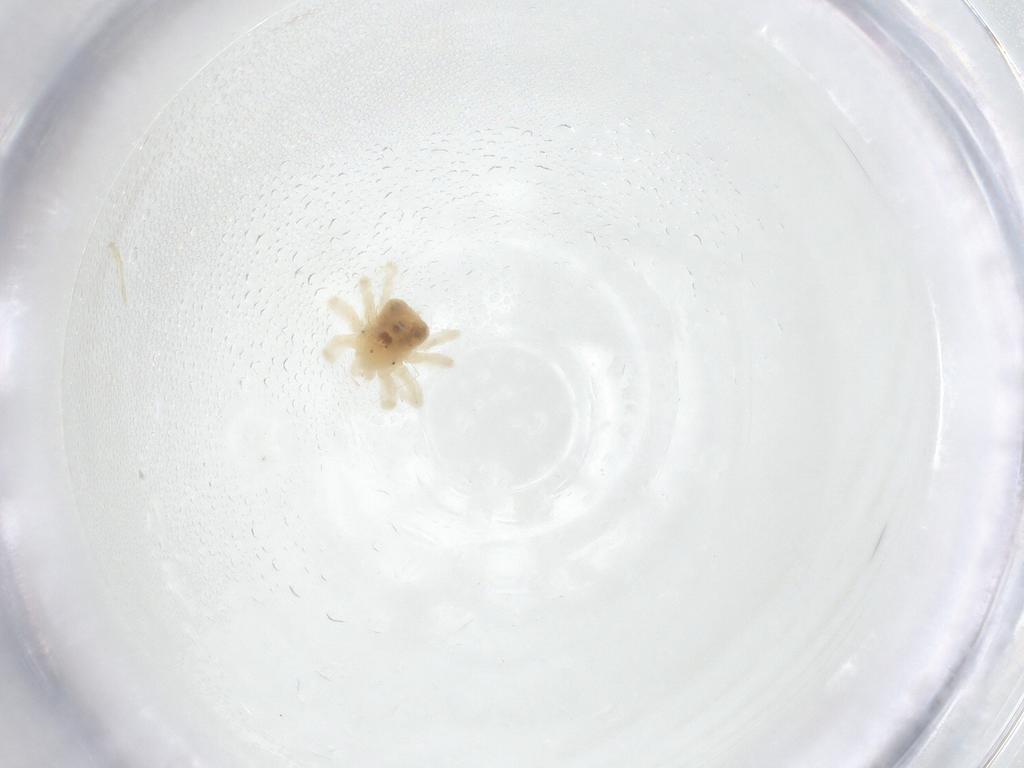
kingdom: Animalia
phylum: Arthropoda
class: Arachnida
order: Trombidiformes
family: Anystidae
